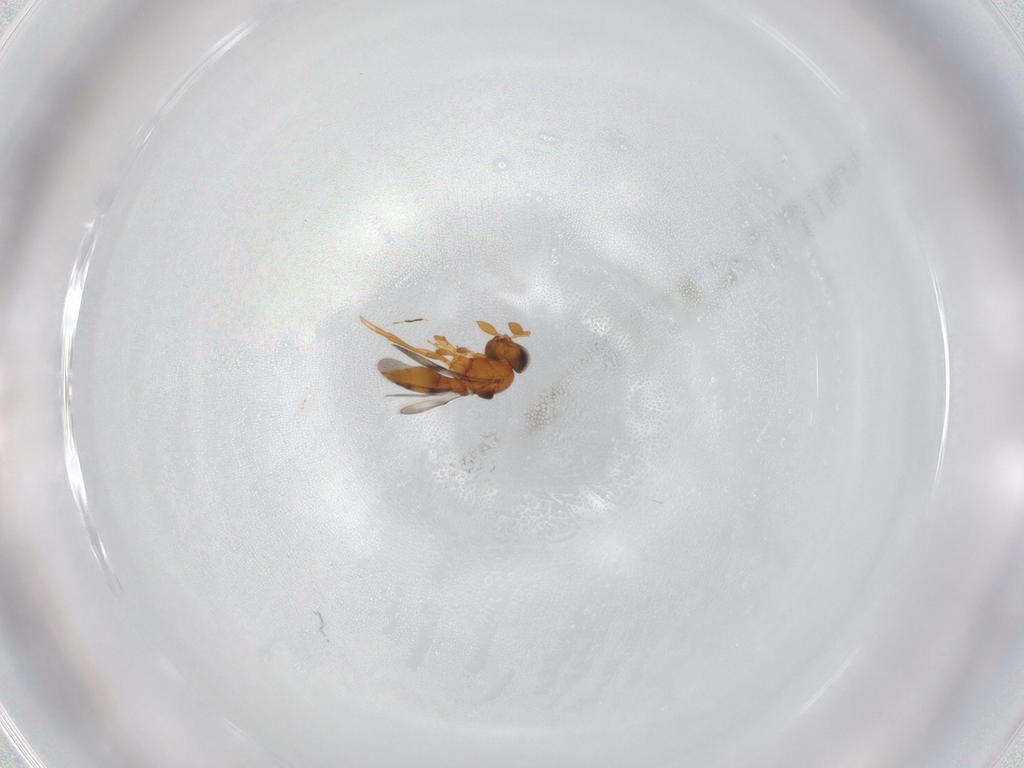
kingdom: Animalia
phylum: Arthropoda
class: Insecta
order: Hymenoptera
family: Scelionidae
